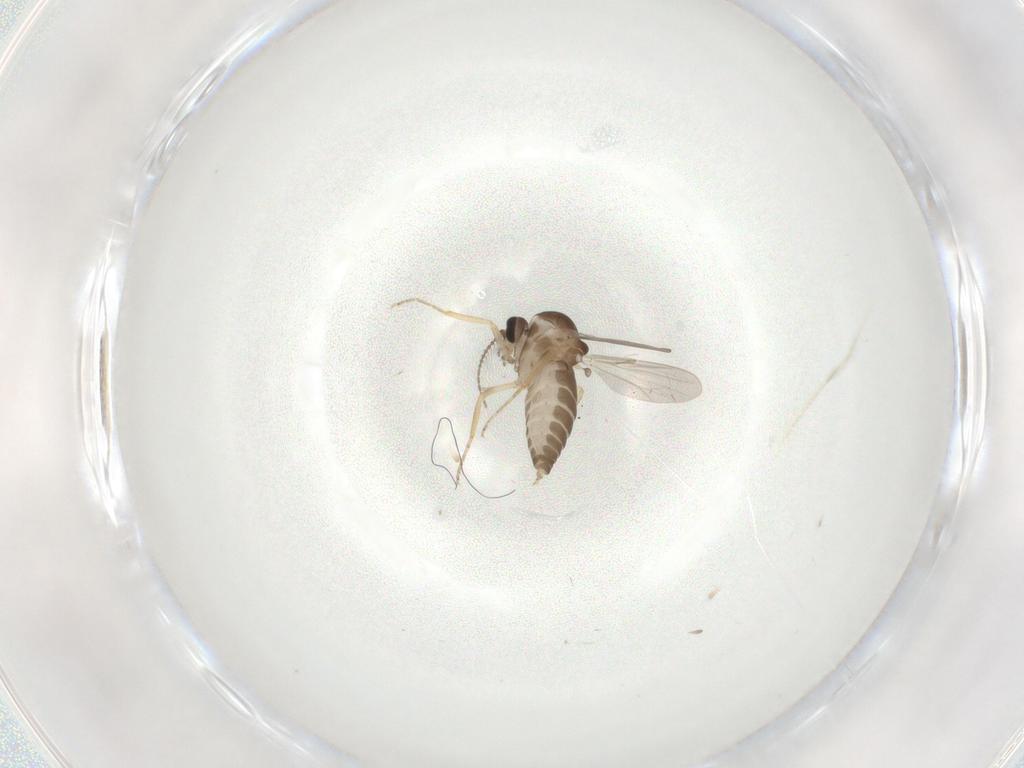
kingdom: Animalia
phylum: Arthropoda
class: Insecta
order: Diptera
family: Ceratopogonidae
